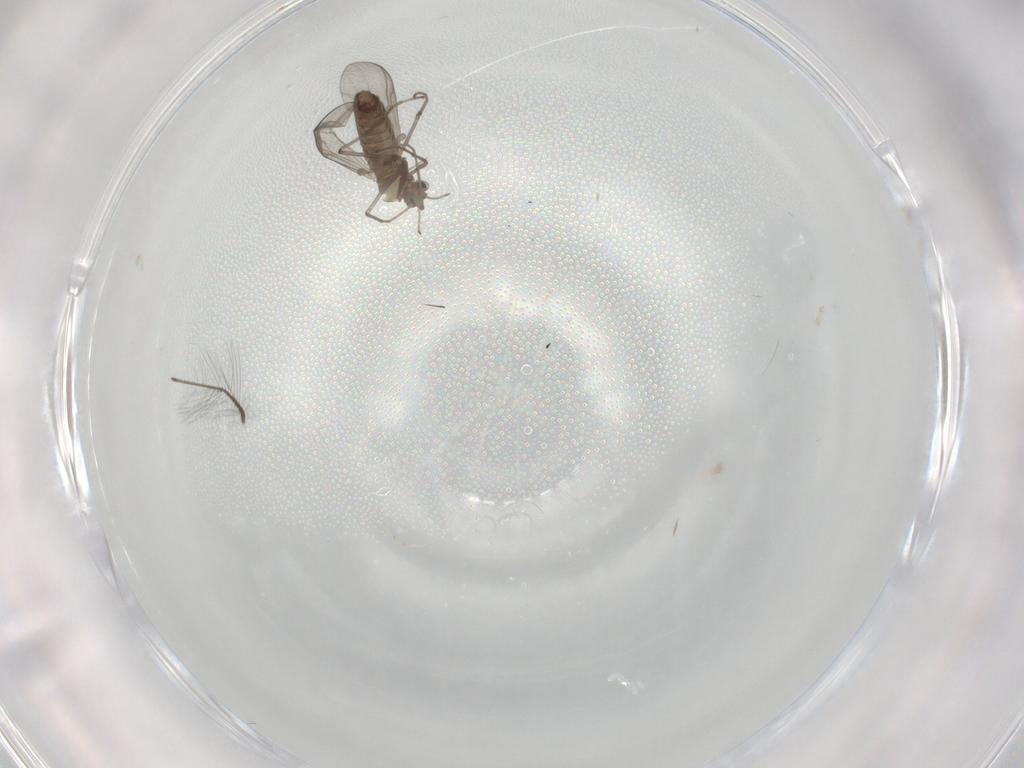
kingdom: Animalia
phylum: Arthropoda
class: Insecta
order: Diptera
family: Chironomidae
